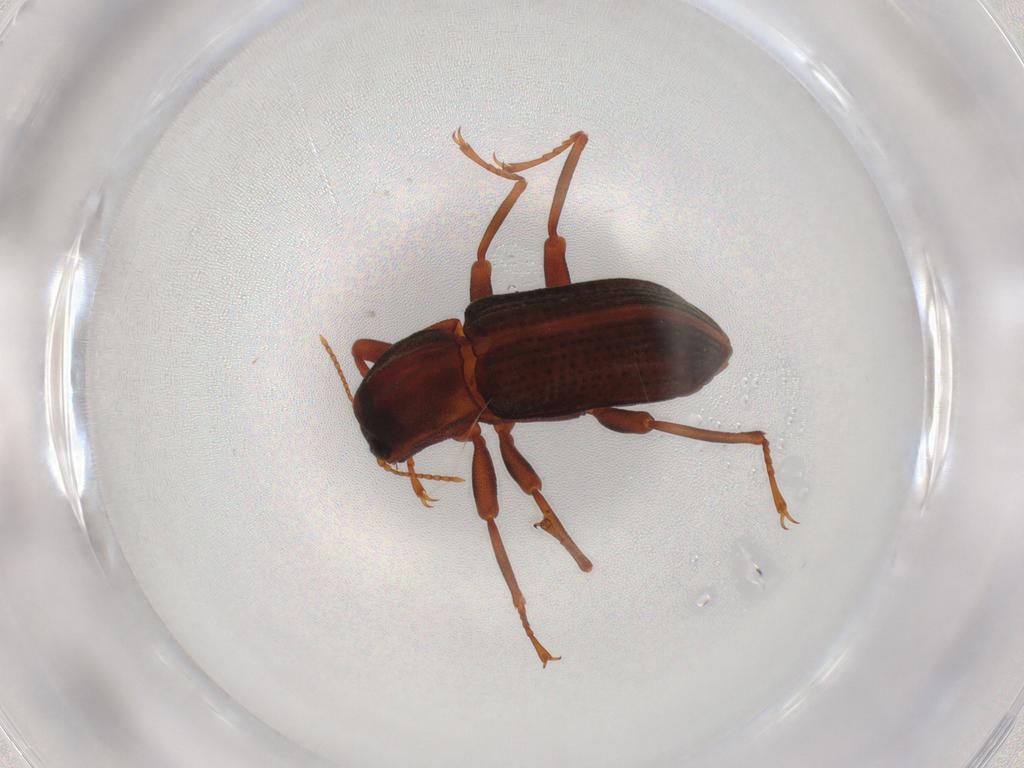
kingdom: Animalia
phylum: Arthropoda
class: Insecta
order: Coleoptera
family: Elmidae
